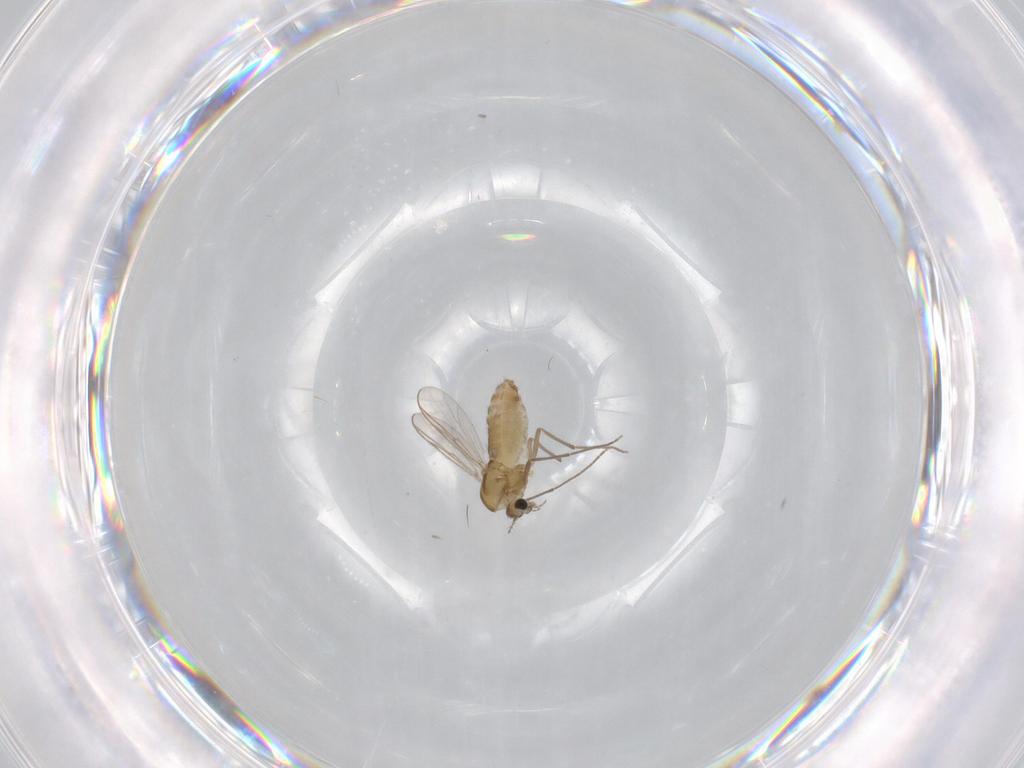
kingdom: Animalia
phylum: Arthropoda
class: Insecta
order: Diptera
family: Chironomidae
